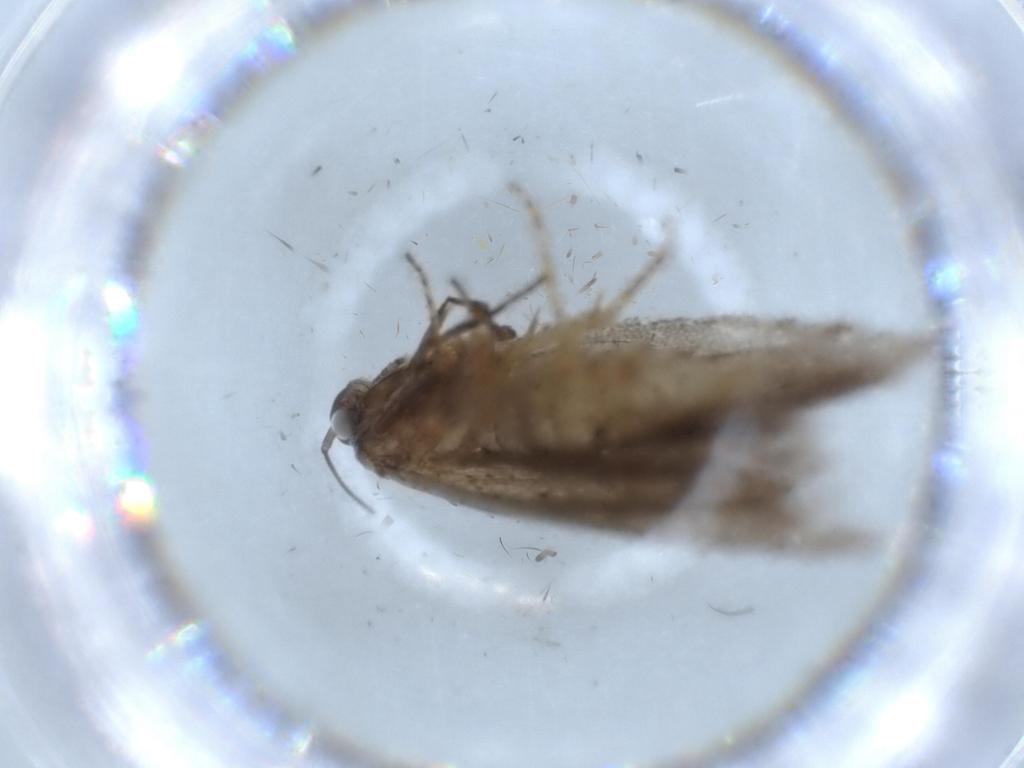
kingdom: Animalia
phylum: Arthropoda
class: Insecta
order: Lepidoptera
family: Oecophoridae
